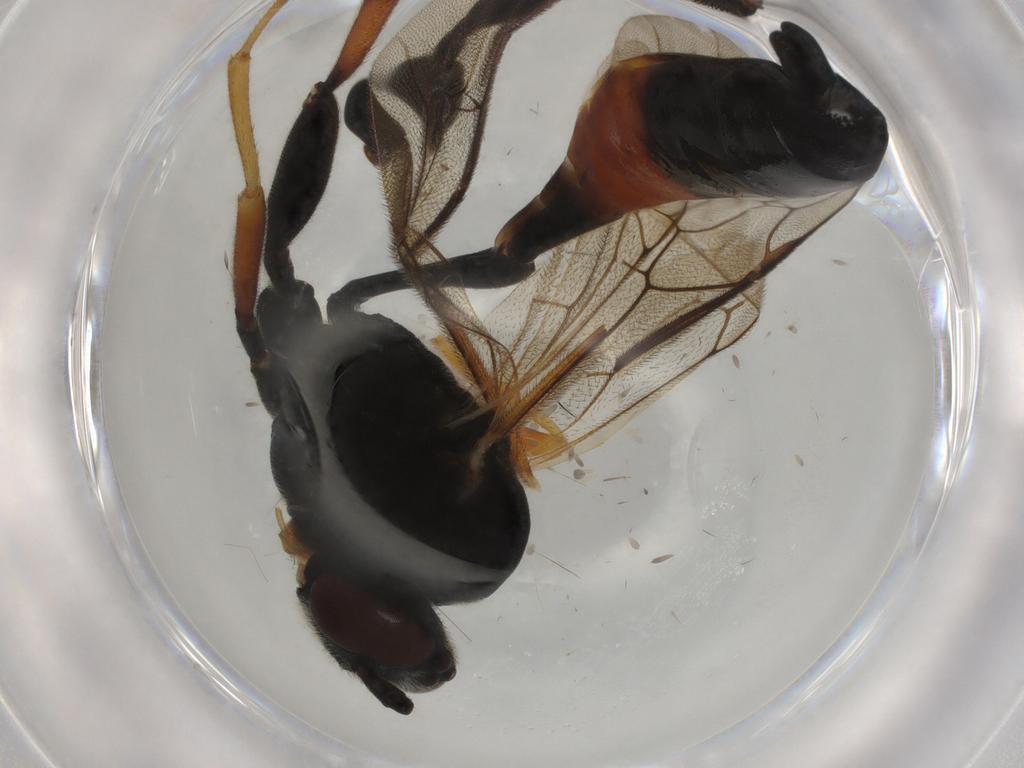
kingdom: Animalia
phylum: Arthropoda
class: Insecta
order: Hymenoptera
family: Ichneumonidae
